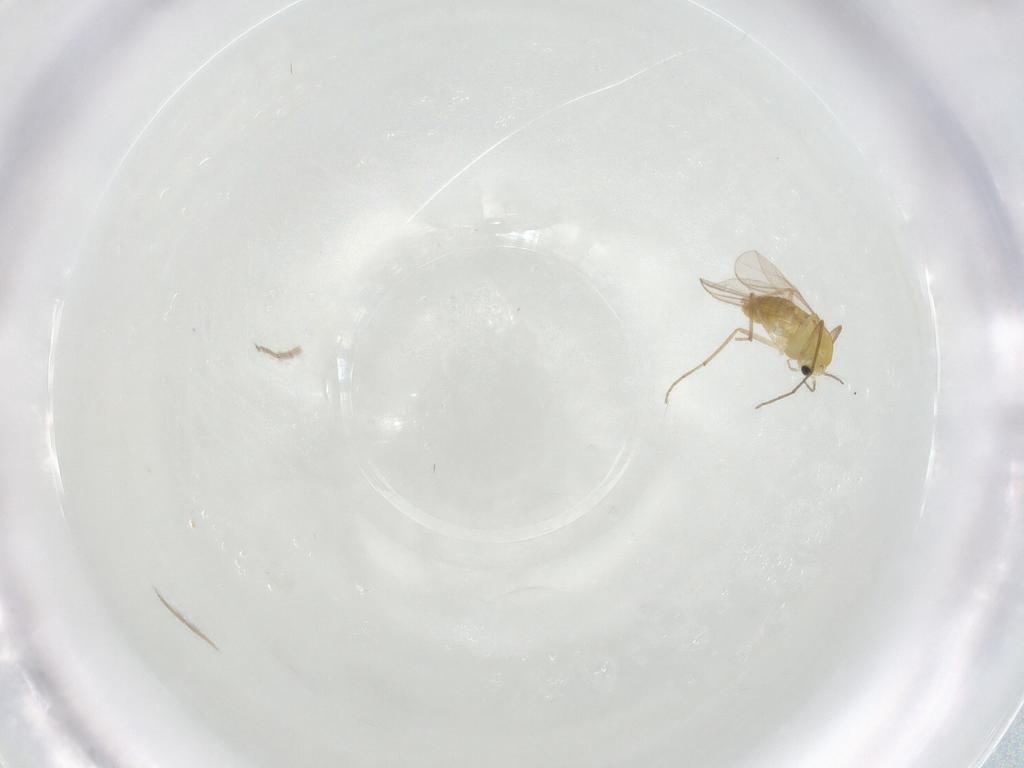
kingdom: Animalia
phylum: Arthropoda
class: Insecta
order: Diptera
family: Chironomidae
